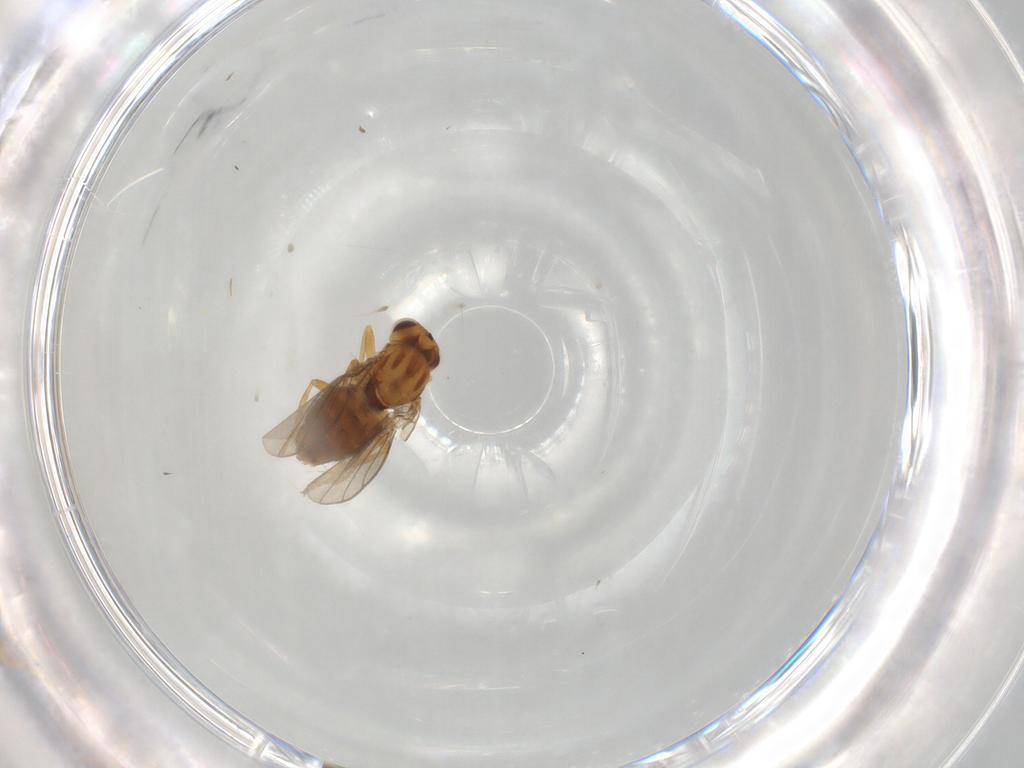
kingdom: Animalia
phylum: Arthropoda
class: Insecta
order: Diptera
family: Chloropidae
